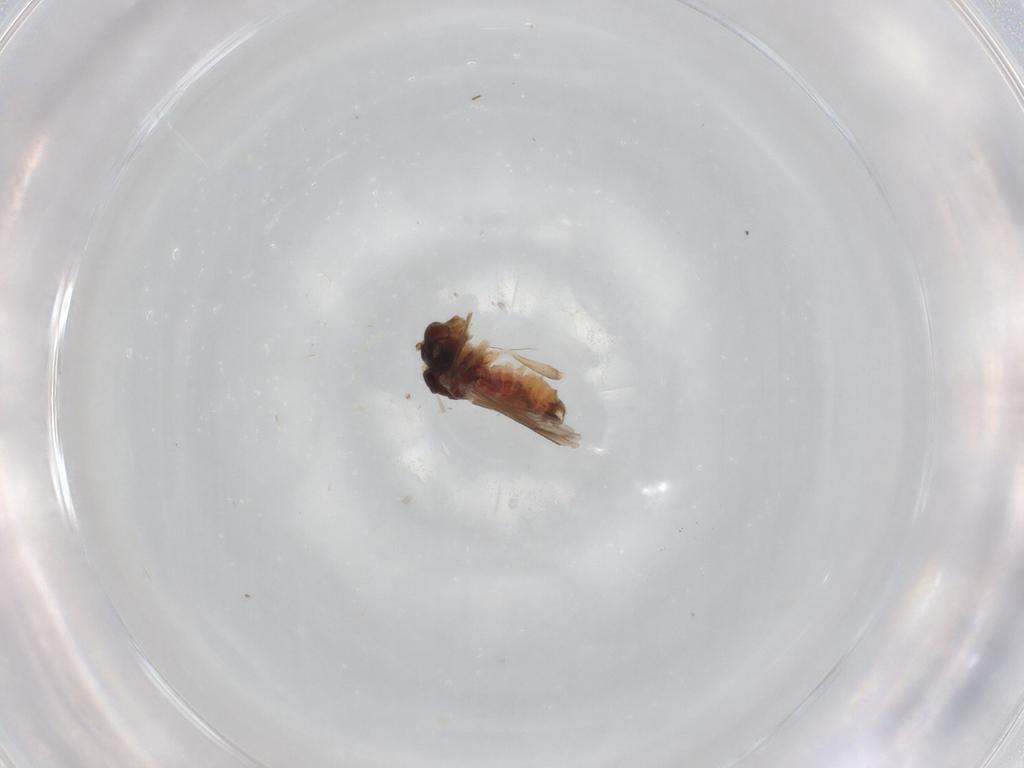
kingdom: Animalia
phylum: Arthropoda
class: Insecta
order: Psocodea
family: Caeciliusidae
